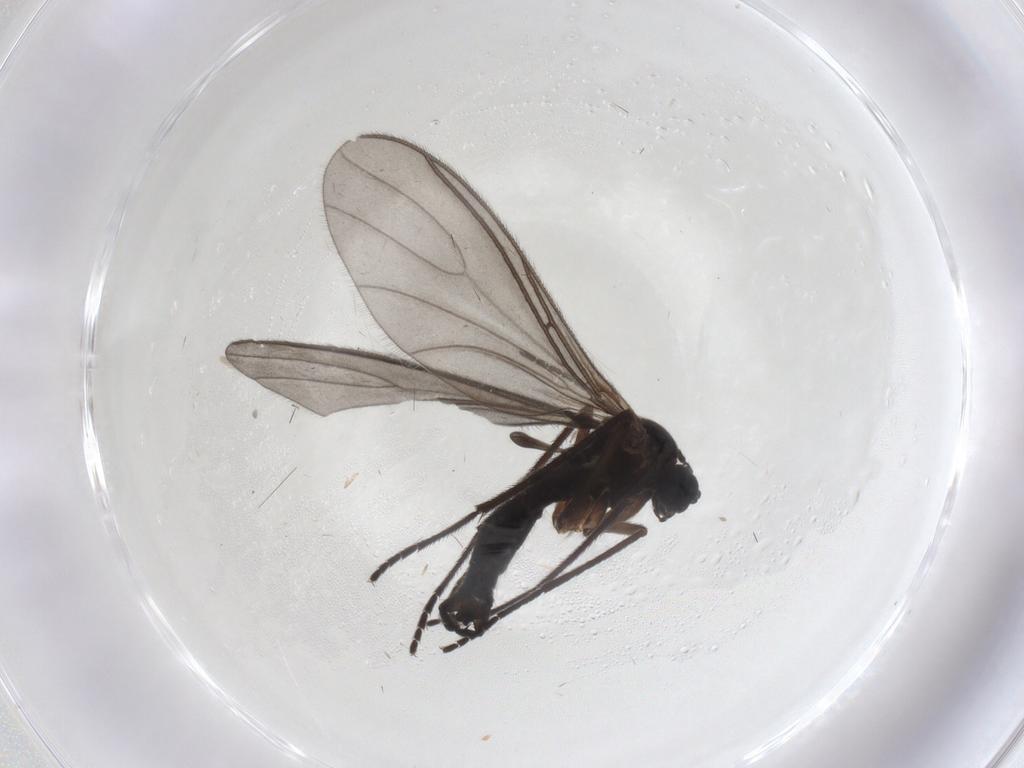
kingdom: Animalia
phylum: Arthropoda
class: Insecta
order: Diptera
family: Sciaridae
